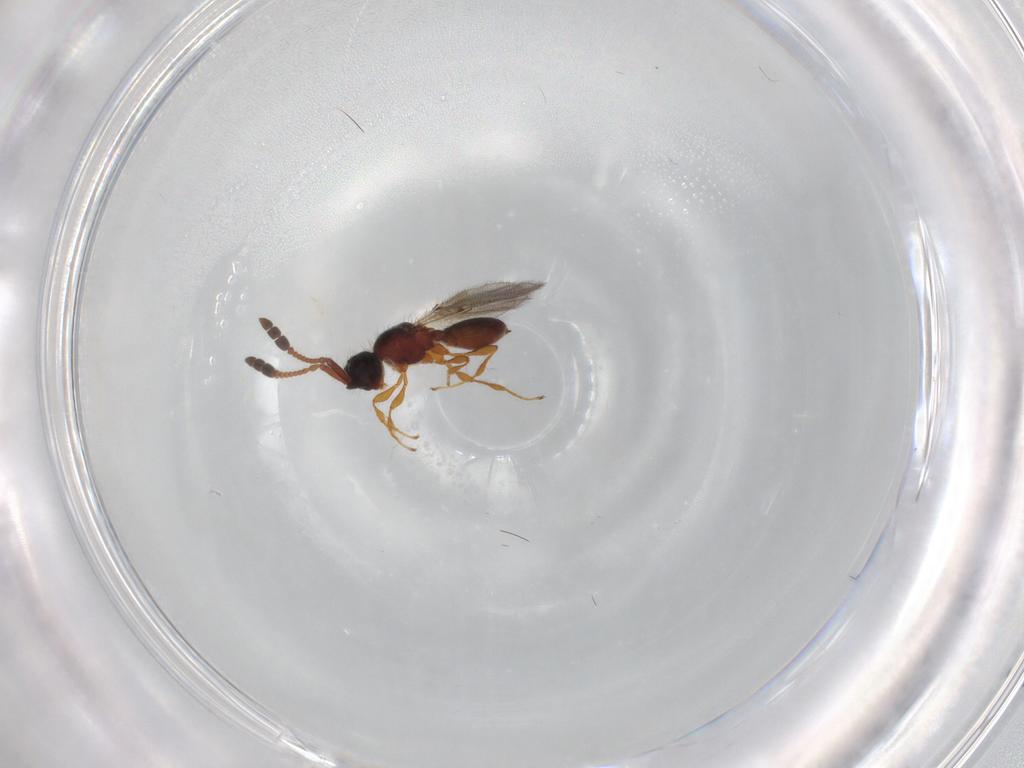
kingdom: Animalia
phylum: Arthropoda
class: Insecta
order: Hymenoptera
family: Diapriidae
